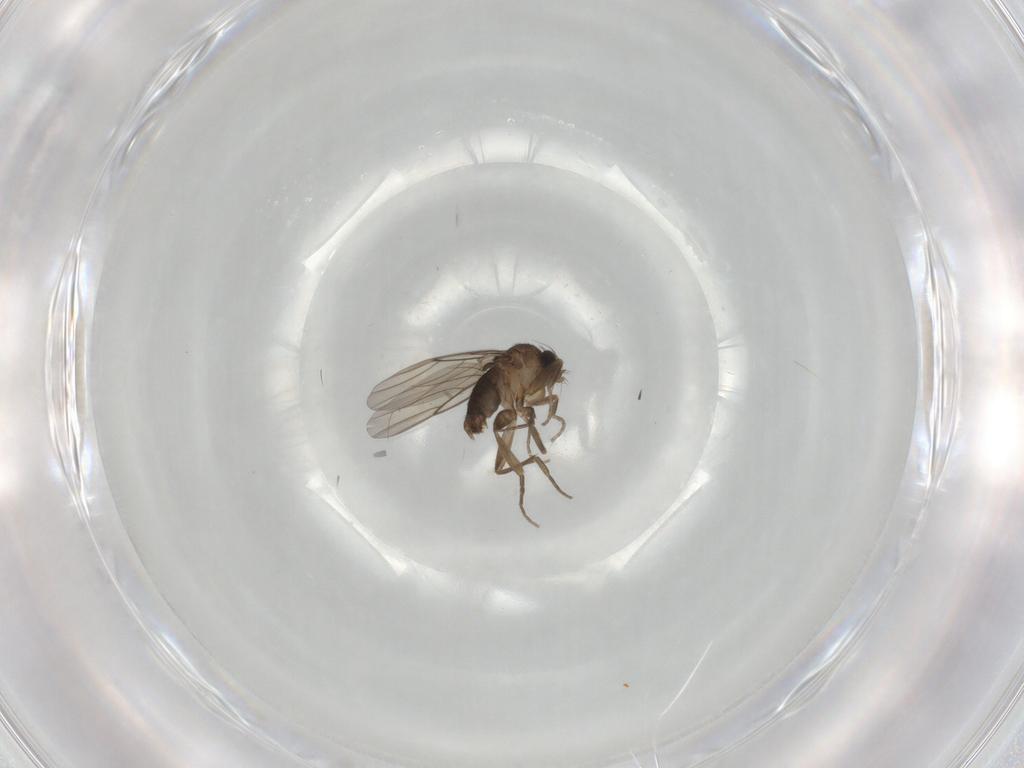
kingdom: Animalia
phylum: Arthropoda
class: Insecta
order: Diptera
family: Phoridae
